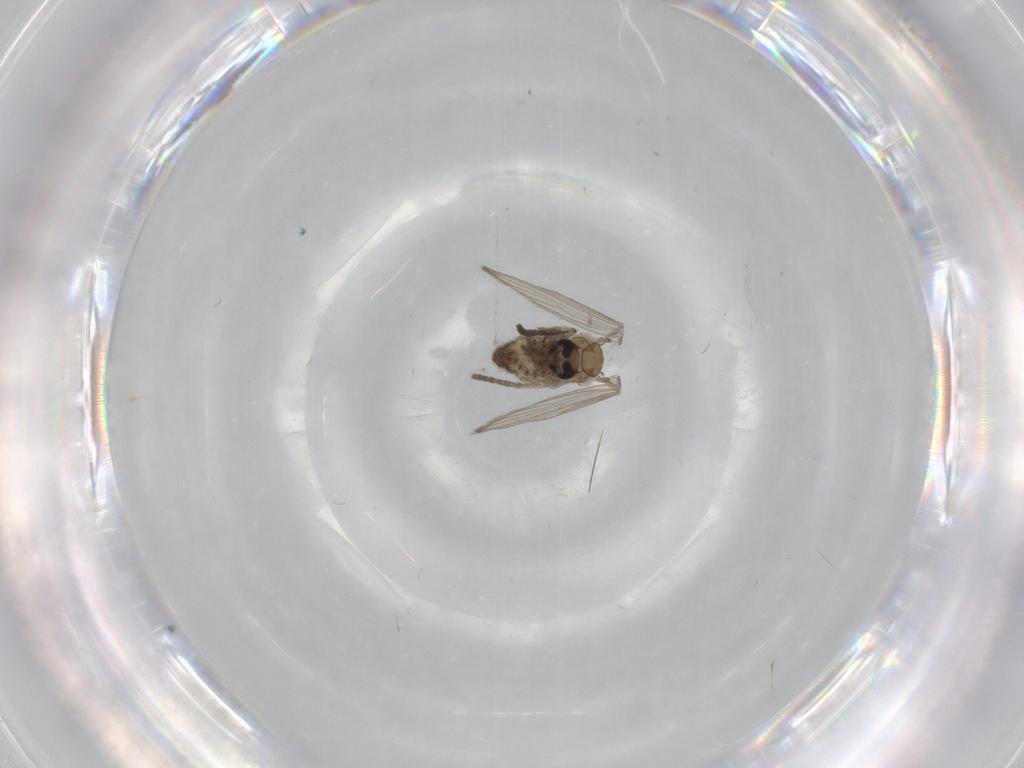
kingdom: Animalia
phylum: Arthropoda
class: Insecta
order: Diptera
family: Psychodidae
